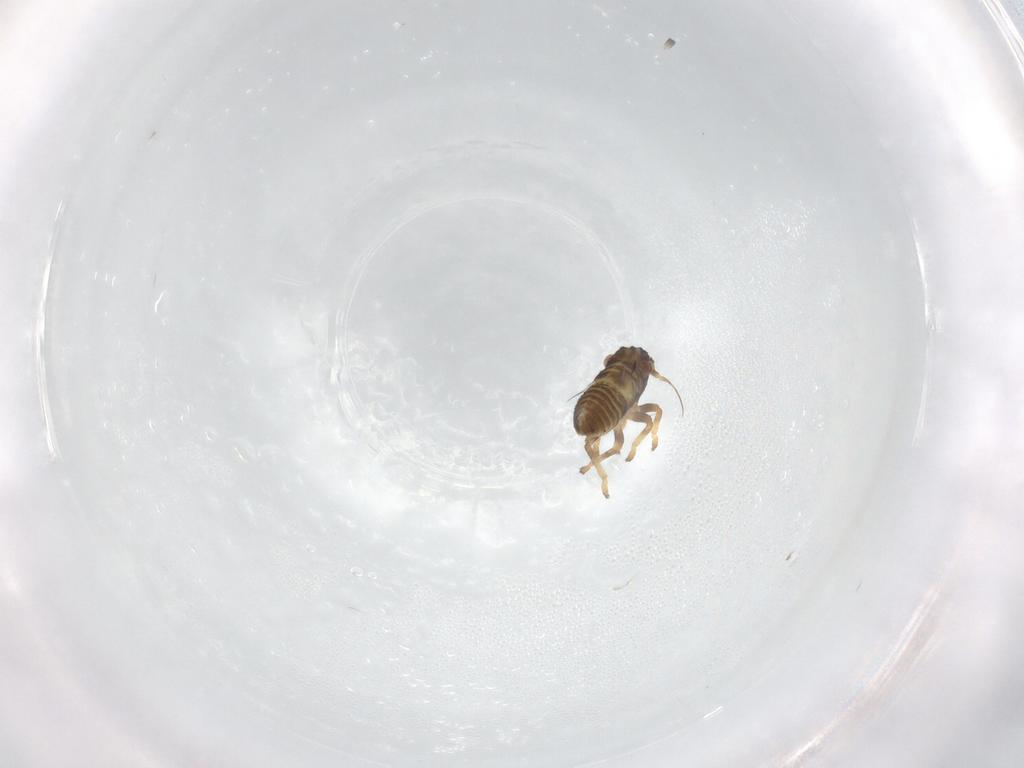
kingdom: Animalia
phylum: Arthropoda
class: Insecta
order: Hemiptera
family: Cicadellidae
